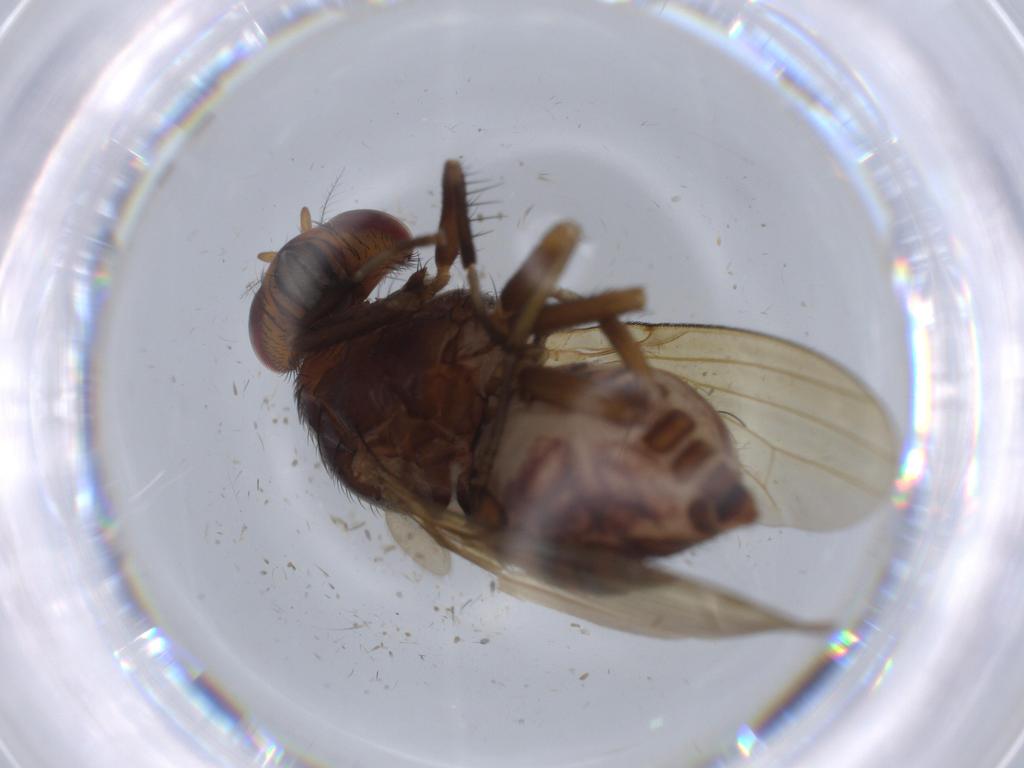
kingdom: Animalia
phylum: Arthropoda
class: Insecta
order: Diptera
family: Stratiomyidae
